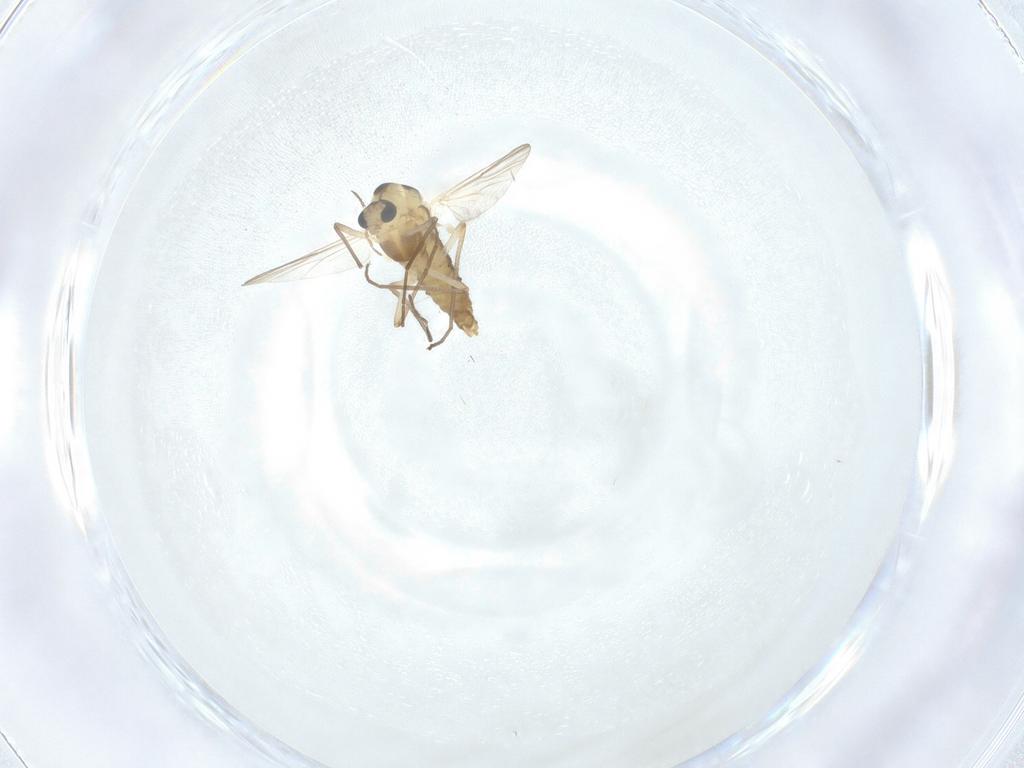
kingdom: Animalia
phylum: Arthropoda
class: Insecta
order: Diptera
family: Chironomidae
